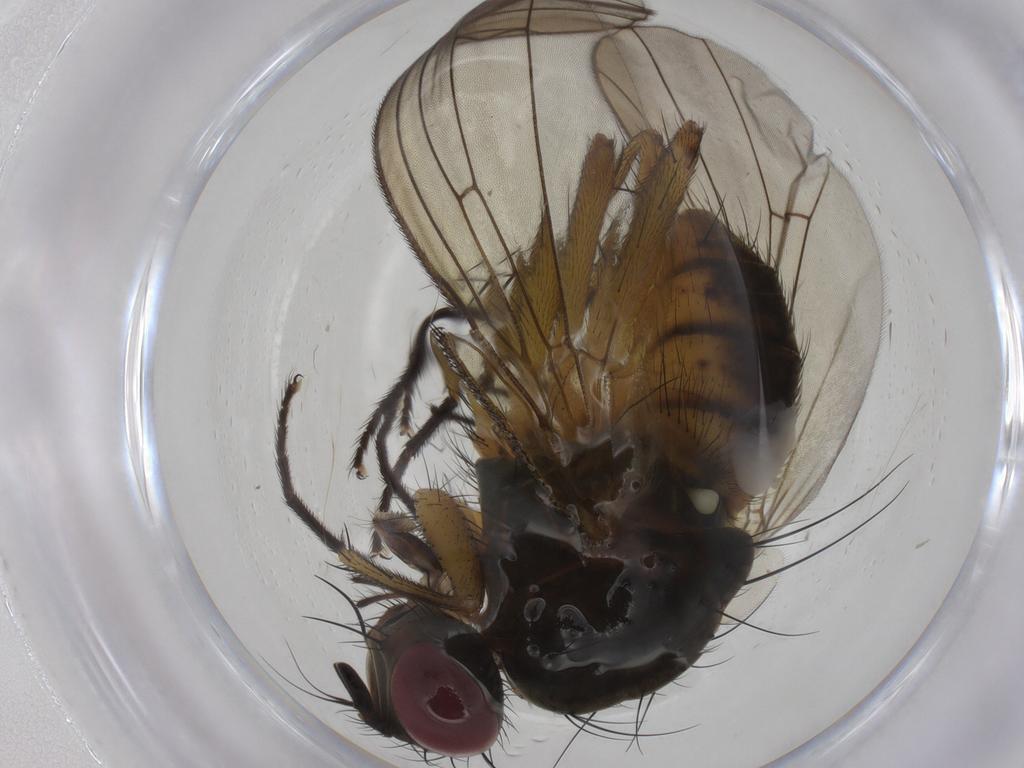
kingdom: Animalia
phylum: Arthropoda
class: Insecta
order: Diptera
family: Muscidae
